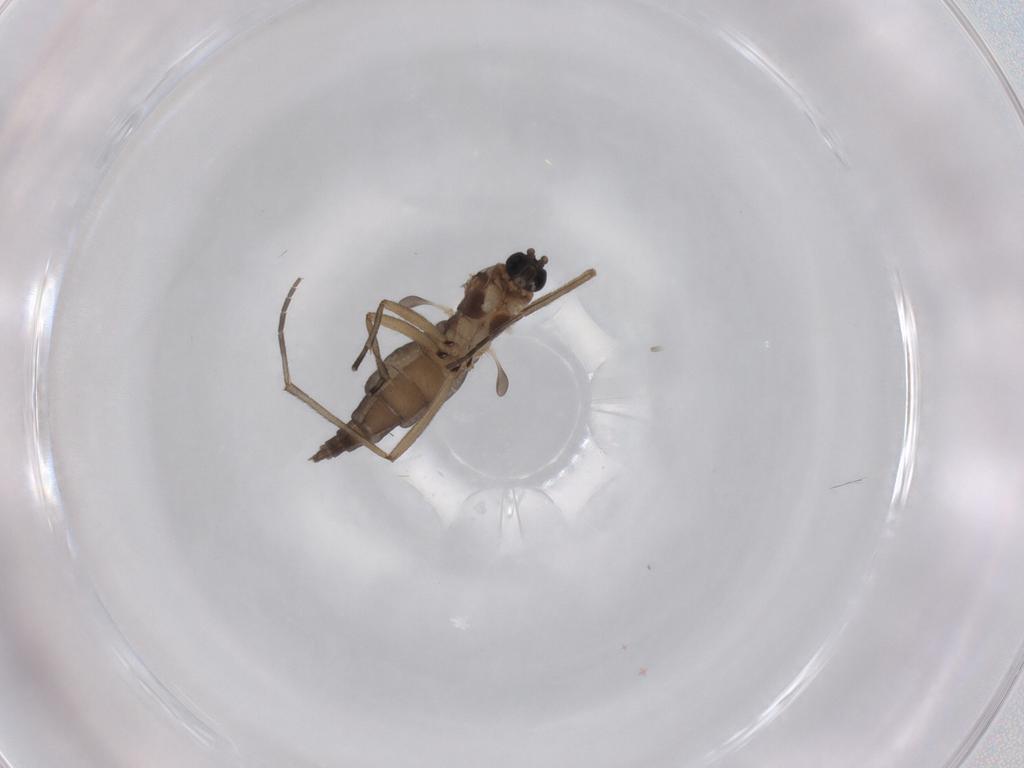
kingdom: Animalia
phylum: Arthropoda
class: Insecta
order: Diptera
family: Sciaridae
